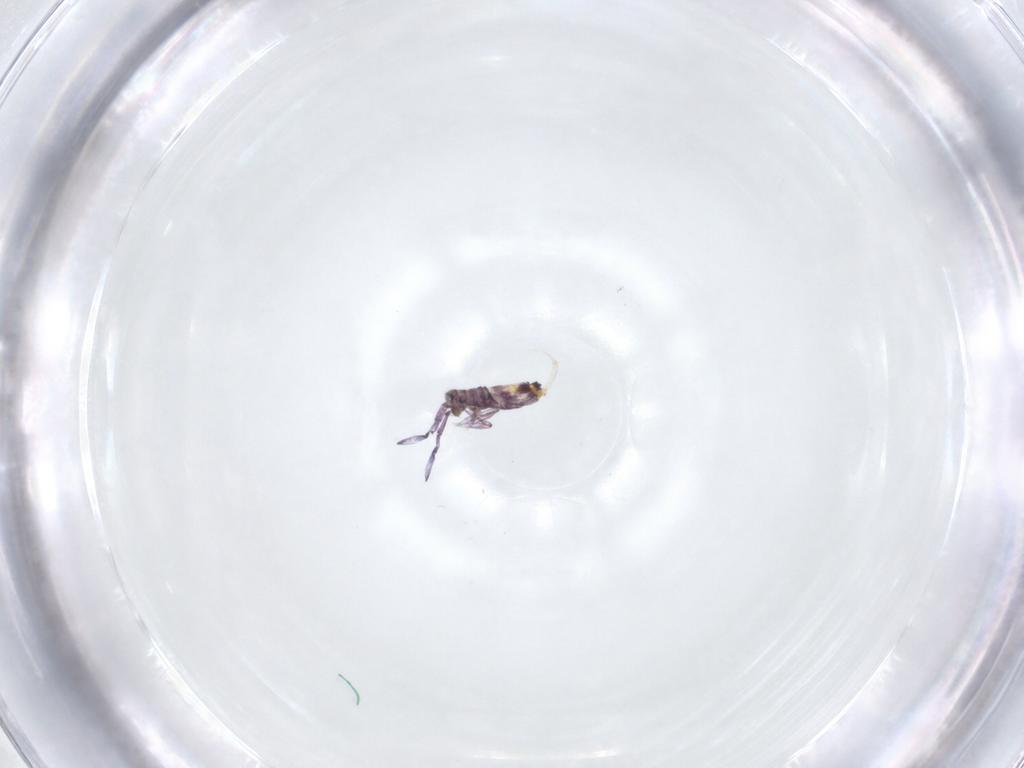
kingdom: Animalia
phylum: Arthropoda
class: Collembola
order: Entomobryomorpha
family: Entomobryidae
